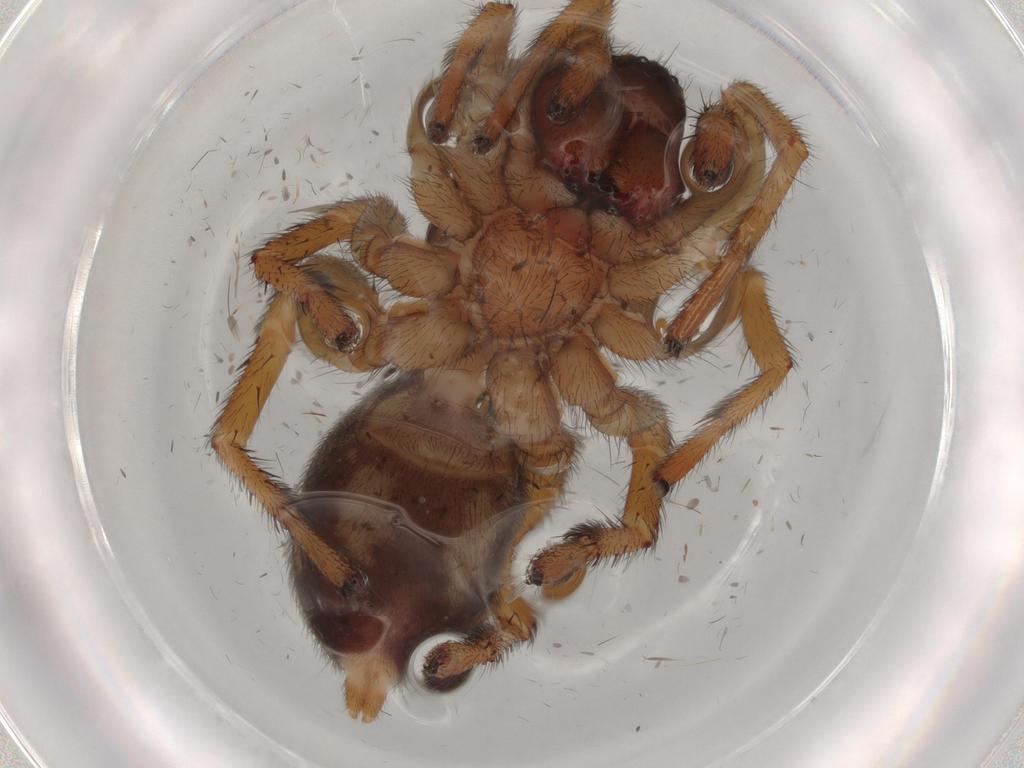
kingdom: Animalia
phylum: Arthropoda
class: Arachnida
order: Araneae
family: Zodariidae
